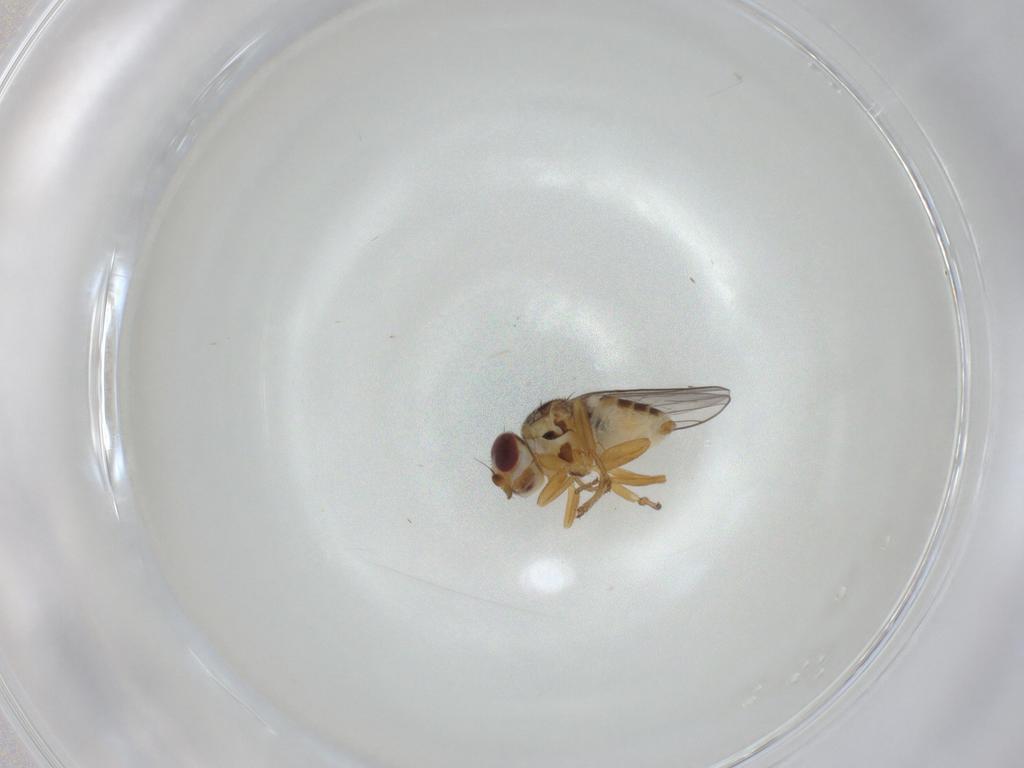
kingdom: Animalia
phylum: Arthropoda
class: Insecta
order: Diptera
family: Chloropidae
